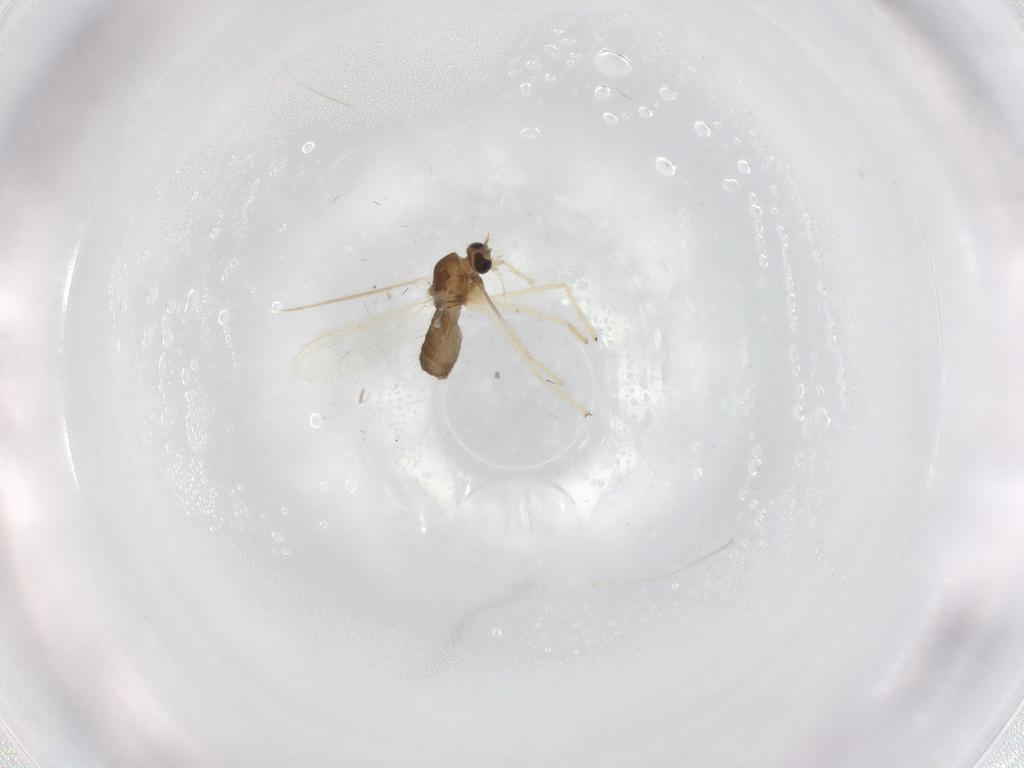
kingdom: Animalia
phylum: Arthropoda
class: Insecta
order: Diptera
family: Chironomidae
